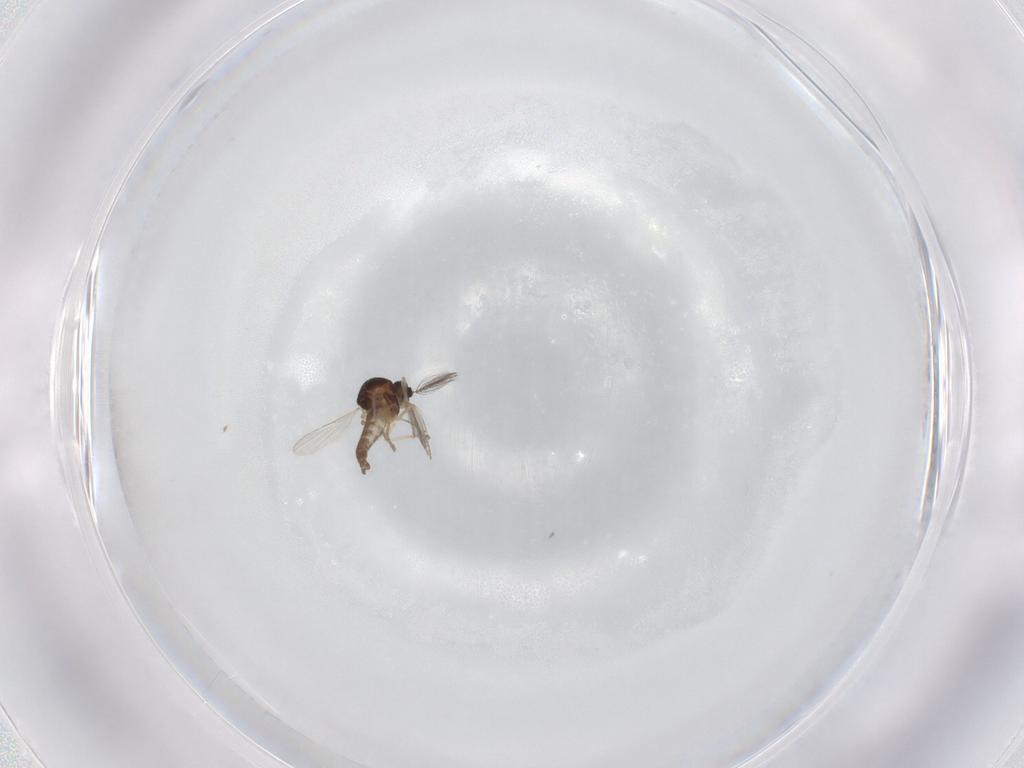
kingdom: Animalia
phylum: Arthropoda
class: Insecta
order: Diptera
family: Ceratopogonidae
